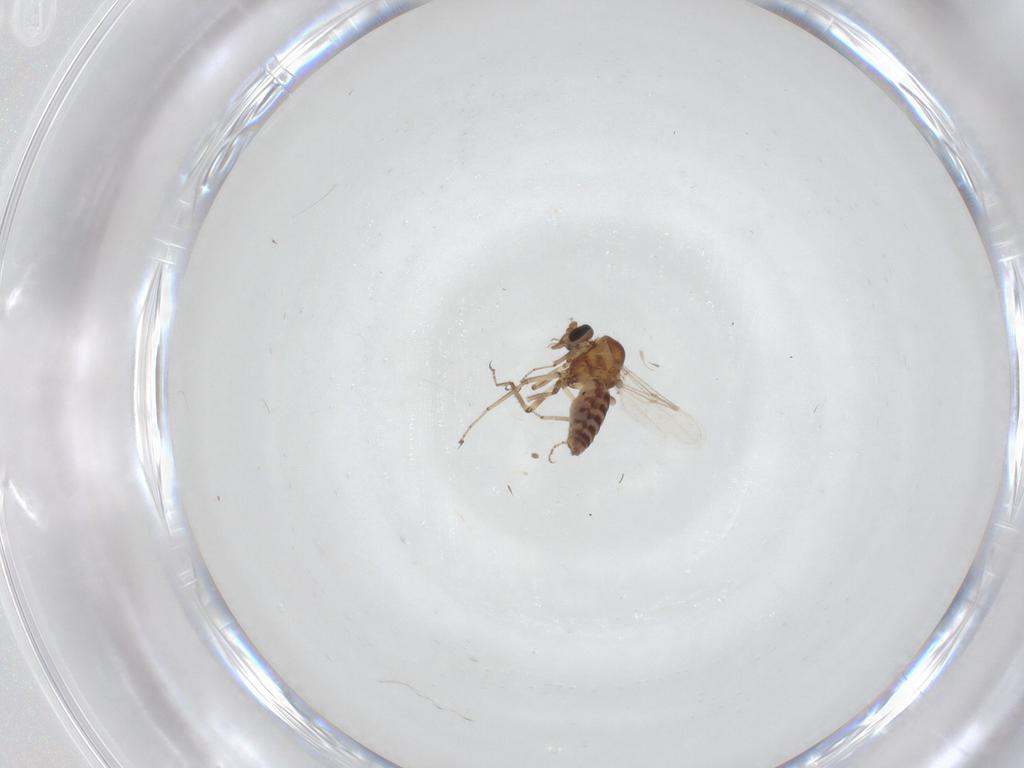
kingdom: Animalia
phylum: Arthropoda
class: Insecta
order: Diptera
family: Ceratopogonidae
